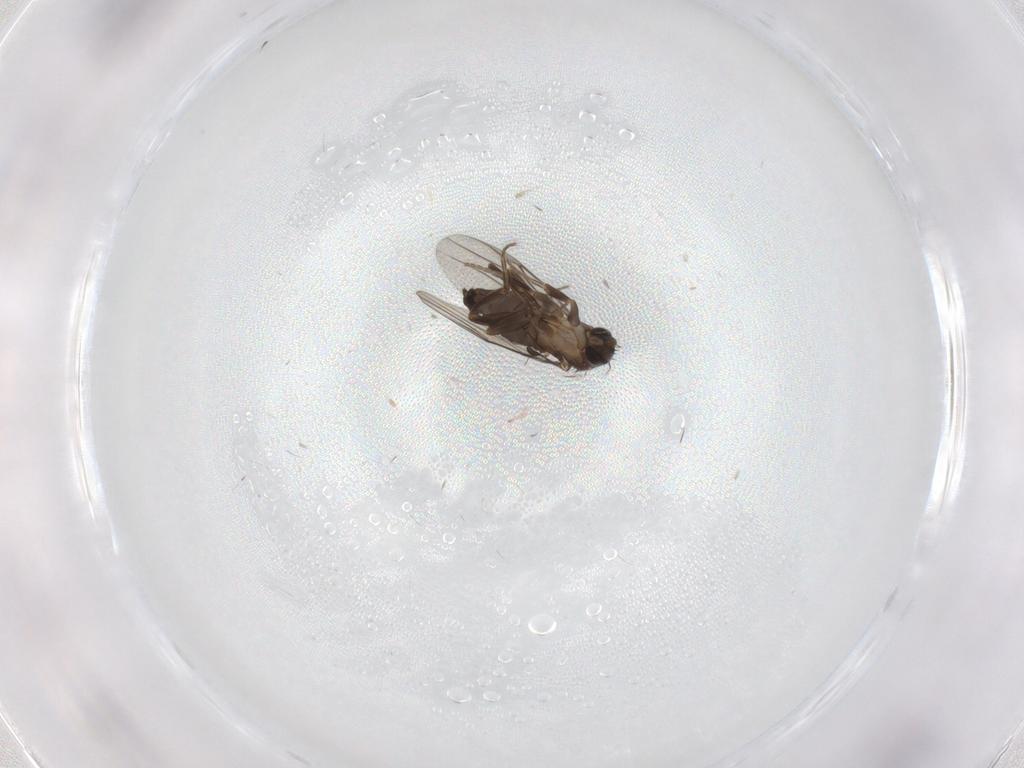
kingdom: Animalia
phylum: Arthropoda
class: Insecta
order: Diptera
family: Phoridae
